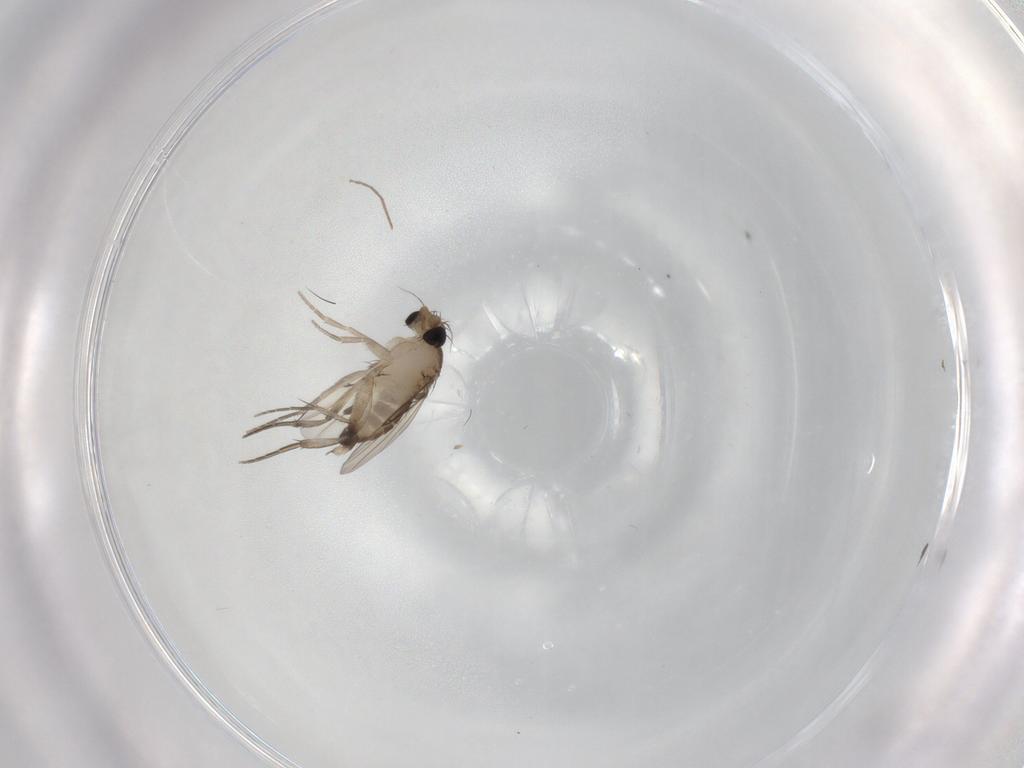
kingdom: Animalia
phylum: Arthropoda
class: Insecta
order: Diptera
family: Phoridae
